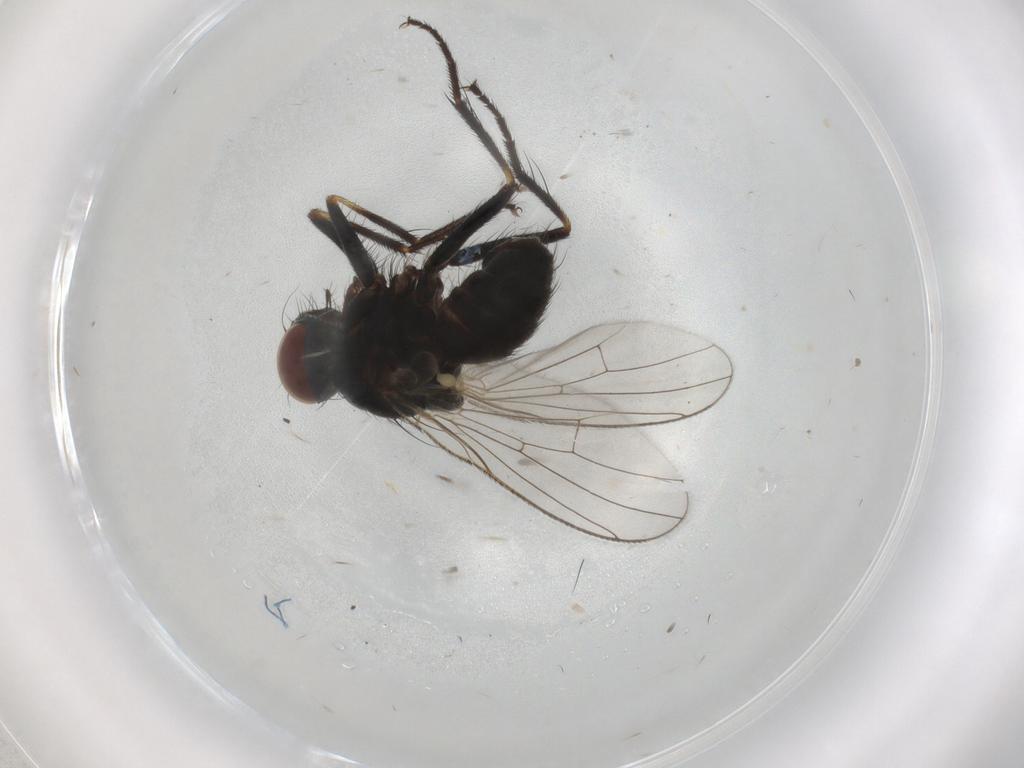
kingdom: Animalia
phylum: Arthropoda
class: Insecta
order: Diptera
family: Muscidae
